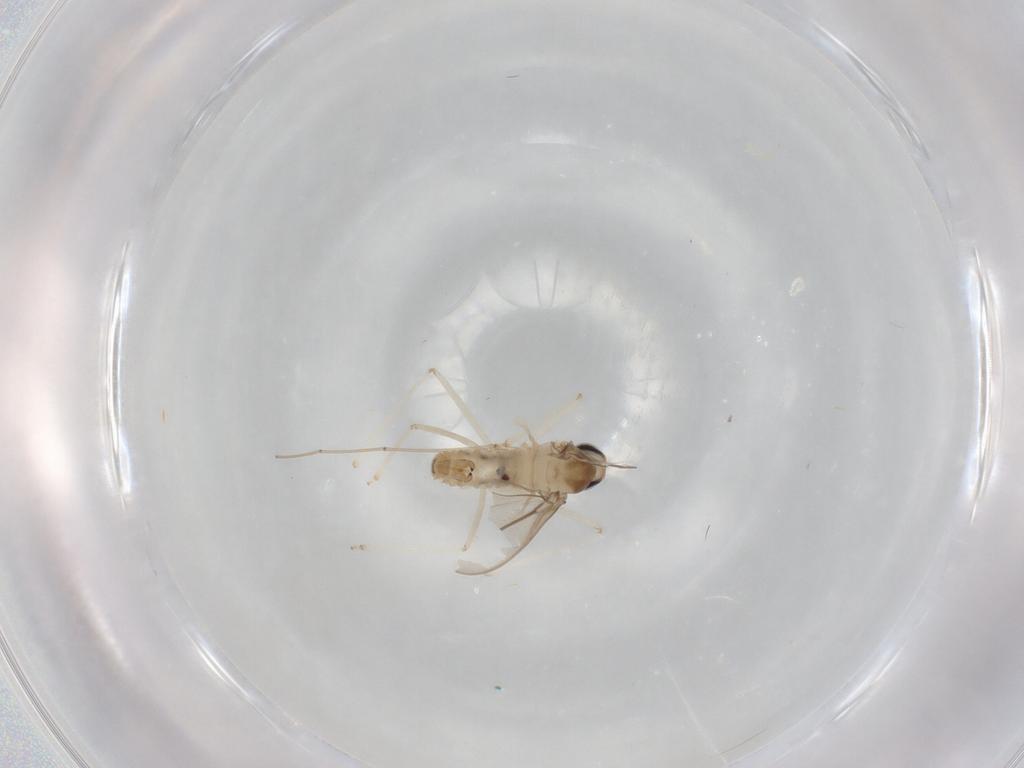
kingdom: Animalia
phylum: Arthropoda
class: Insecta
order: Diptera
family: Cecidomyiidae
